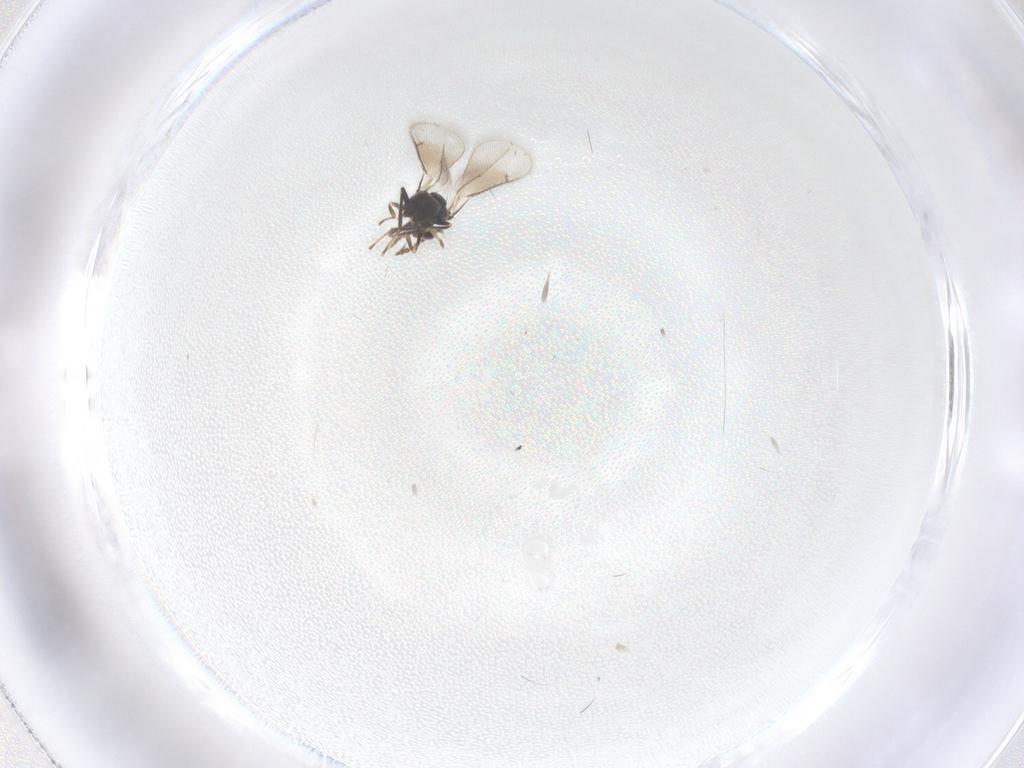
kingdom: Animalia
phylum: Arthropoda
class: Insecta
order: Hymenoptera
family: Eulophidae
